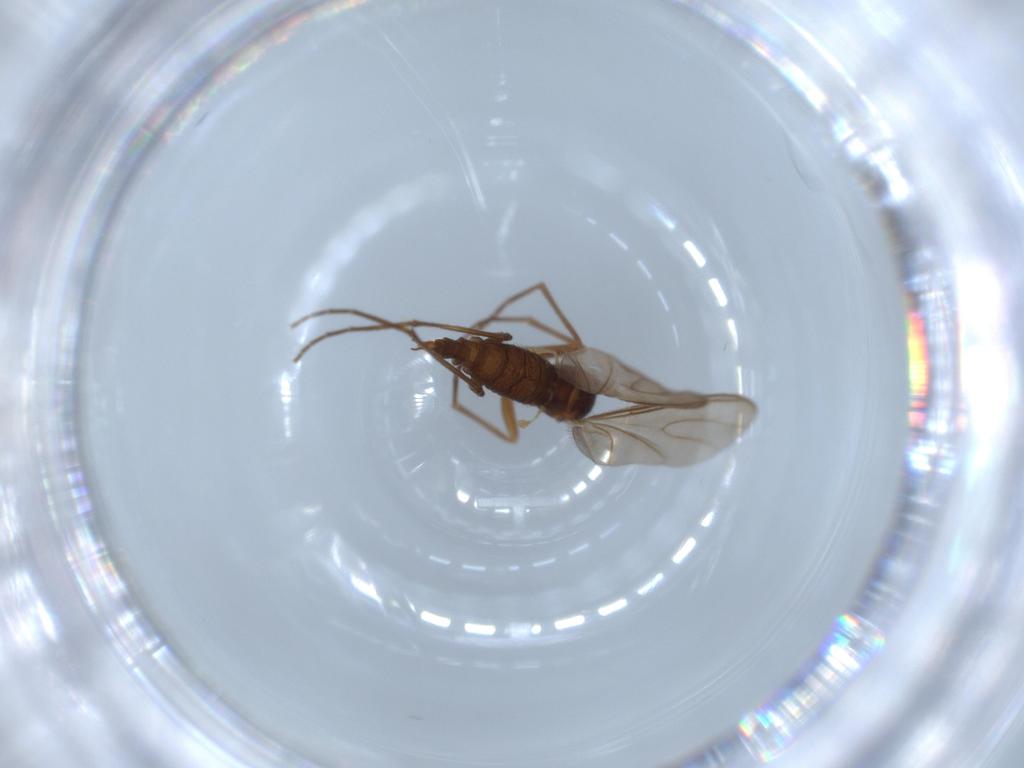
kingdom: Animalia
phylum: Arthropoda
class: Insecta
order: Diptera
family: Sciaridae
